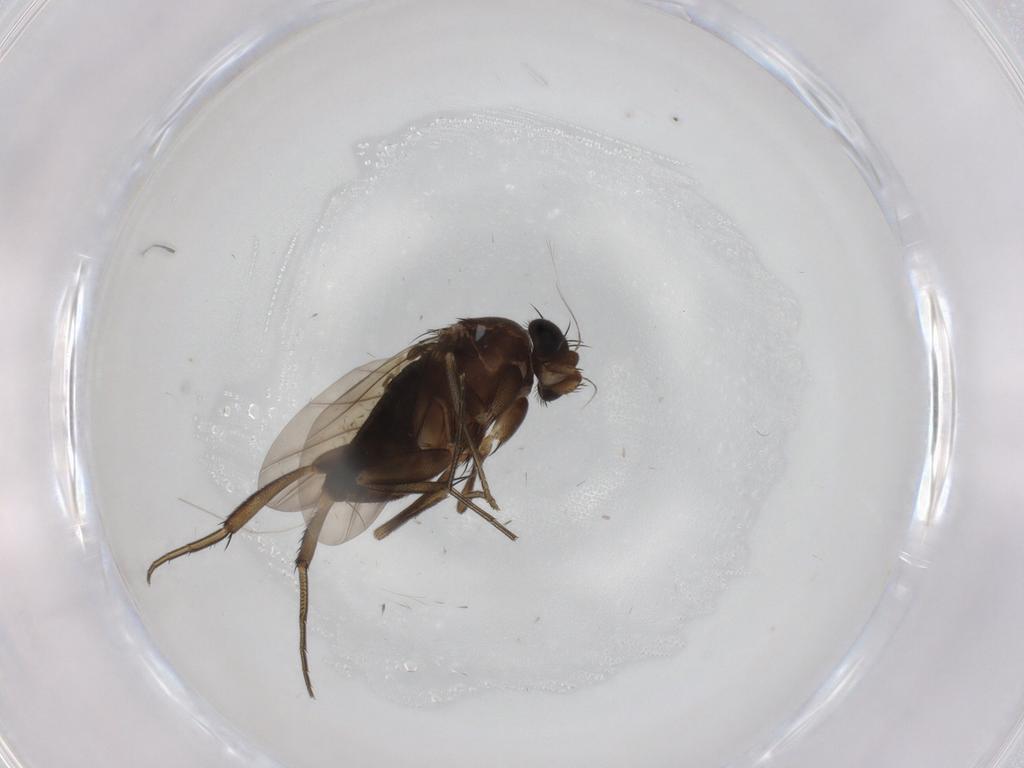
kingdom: Animalia
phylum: Arthropoda
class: Insecta
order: Diptera
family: Phoridae
